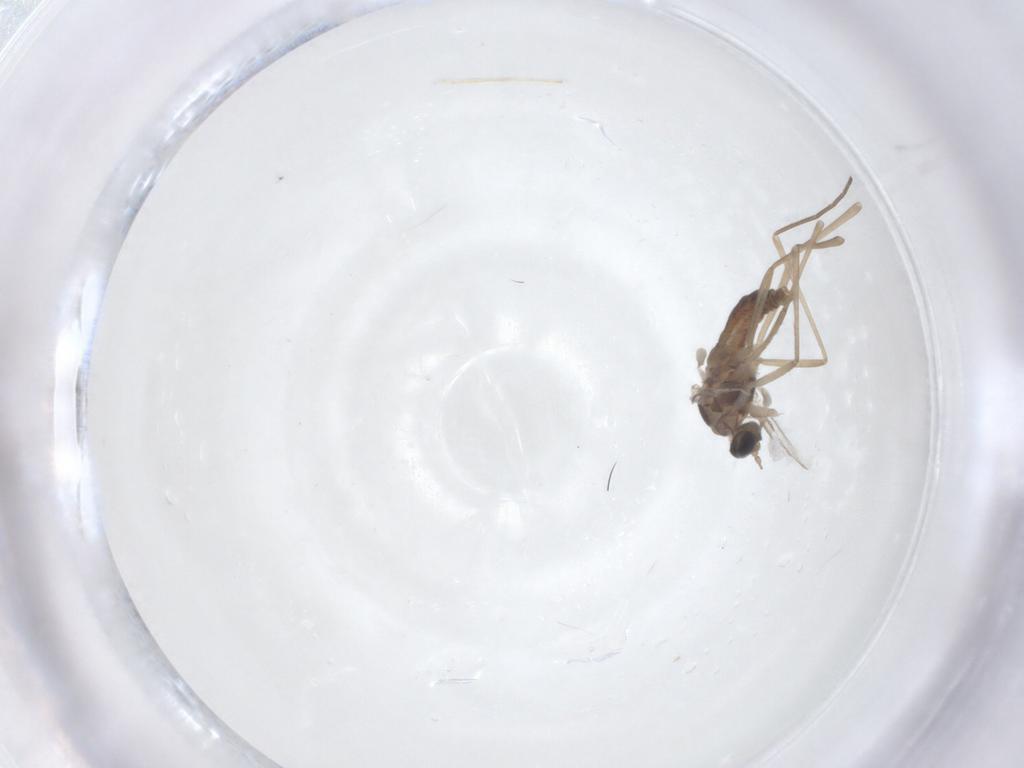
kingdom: Animalia
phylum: Arthropoda
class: Insecta
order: Diptera
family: Cecidomyiidae
